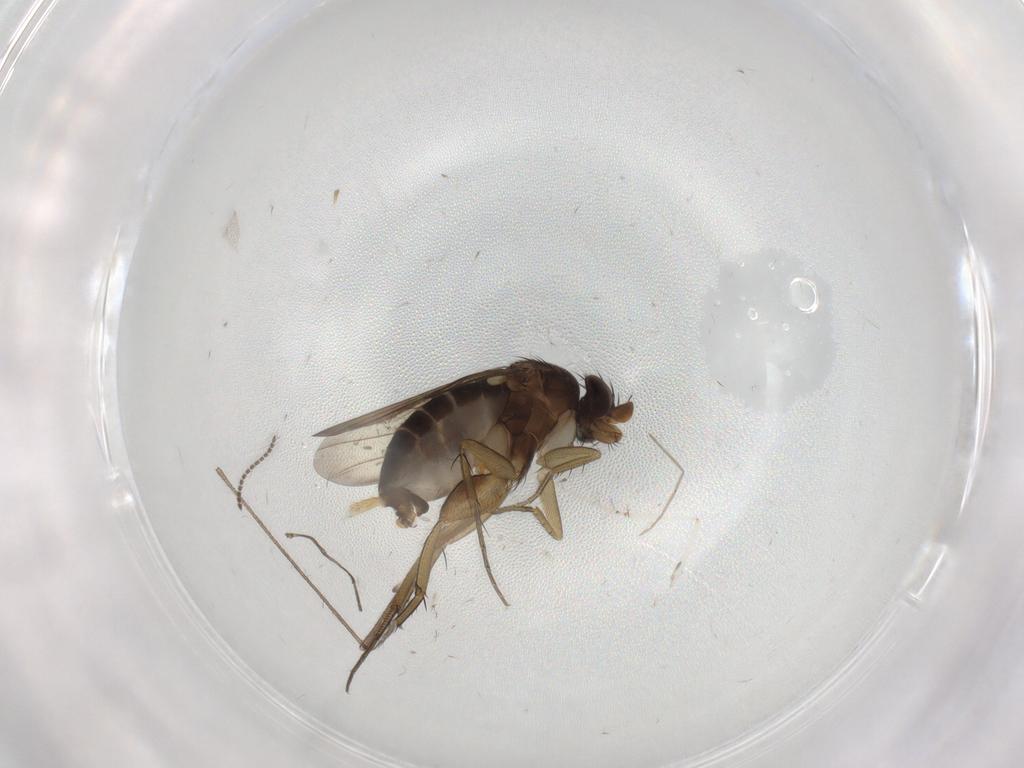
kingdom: Animalia
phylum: Arthropoda
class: Insecta
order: Diptera
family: Phoridae
